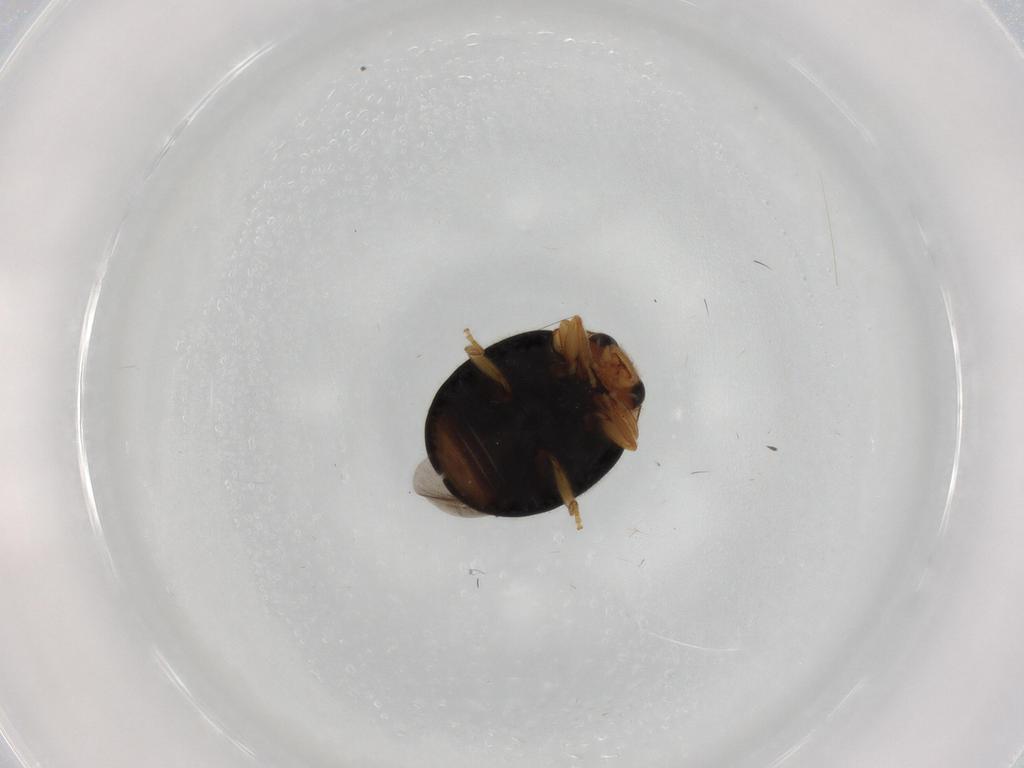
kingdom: Animalia
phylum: Arthropoda
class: Insecta
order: Coleoptera
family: Coccinellidae
